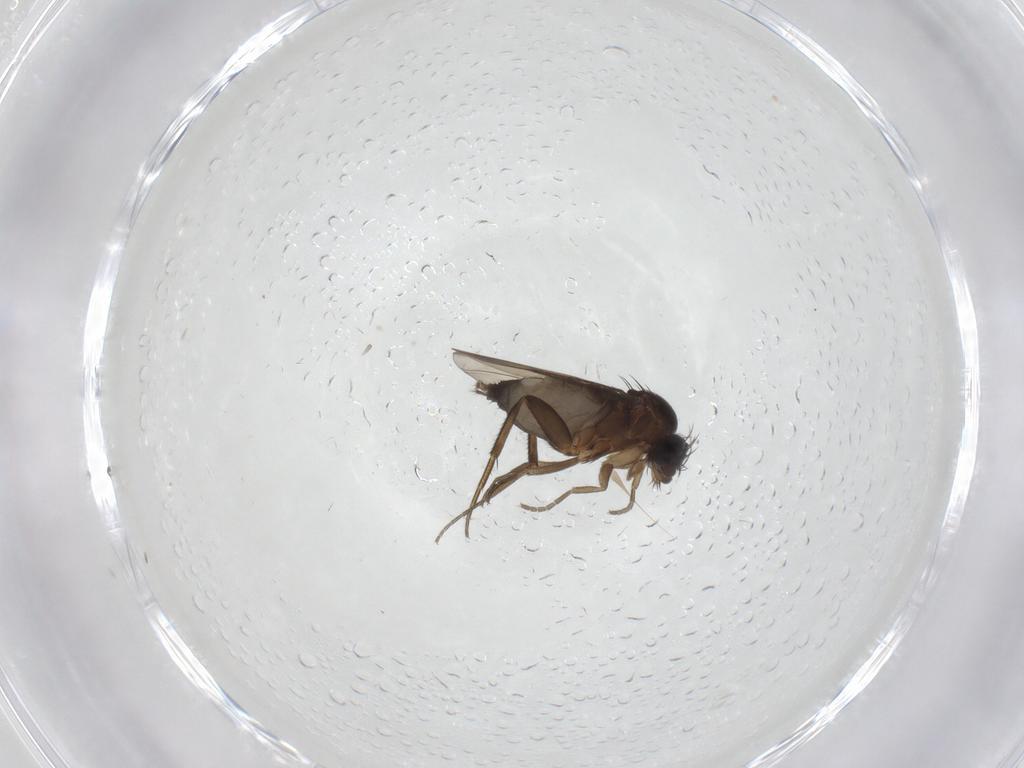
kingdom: Animalia
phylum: Arthropoda
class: Insecta
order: Diptera
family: Phoridae
